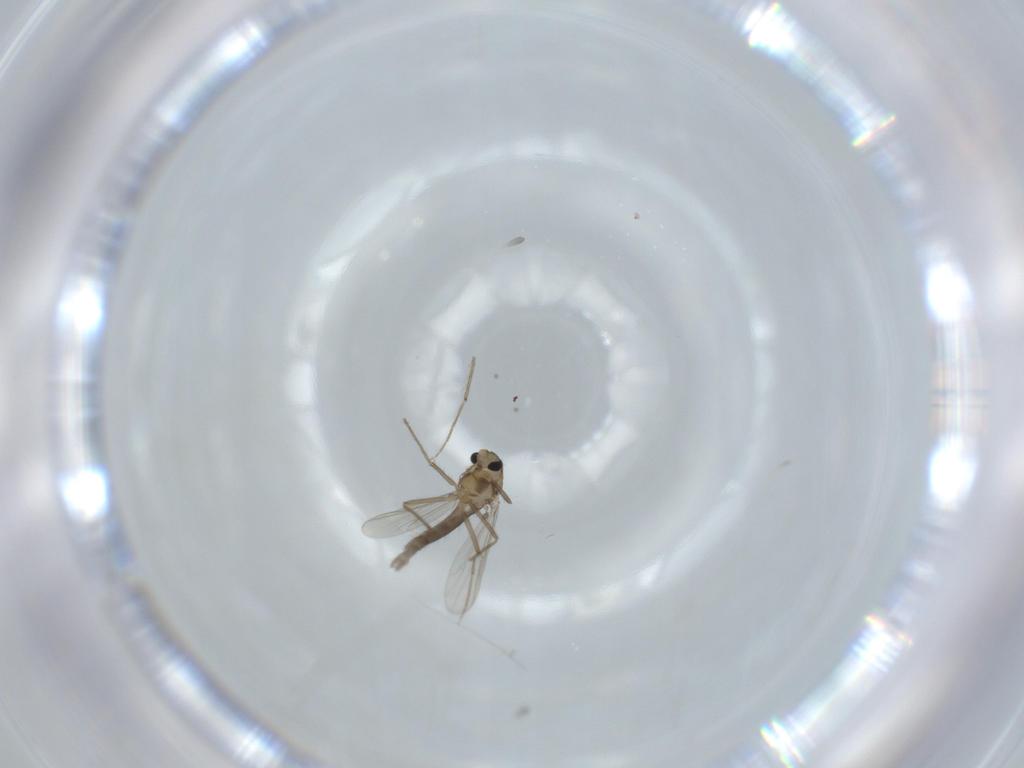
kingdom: Animalia
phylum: Arthropoda
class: Insecta
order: Diptera
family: Chironomidae
